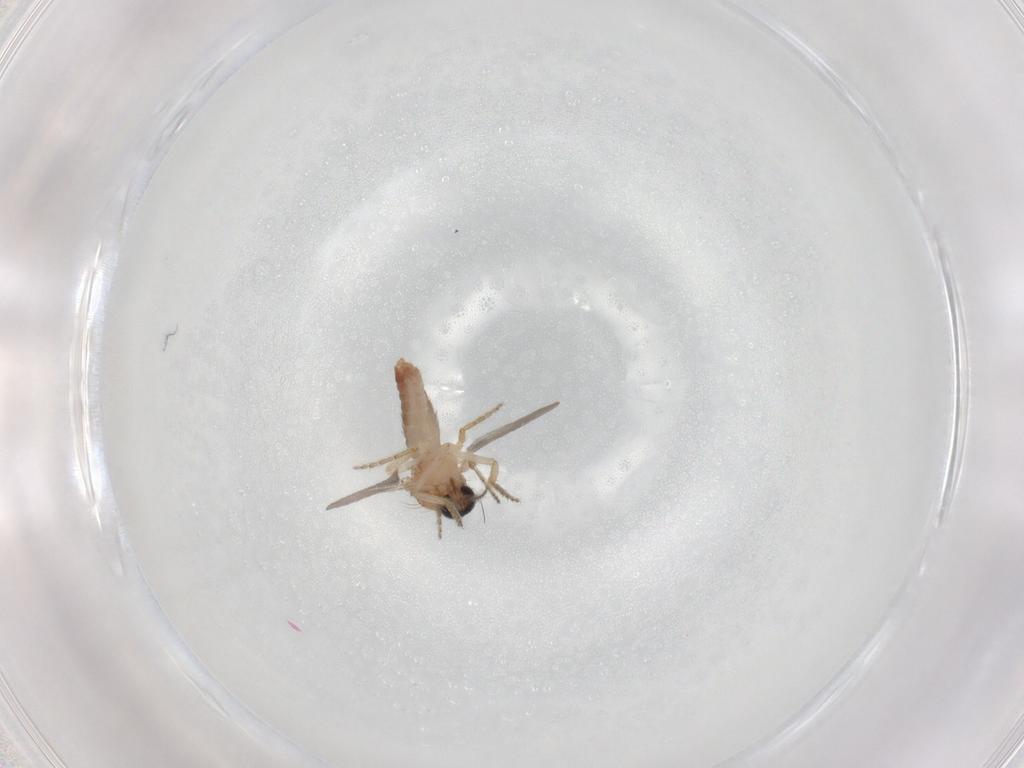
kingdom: Animalia
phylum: Arthropoda
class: Insecta
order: Diptera
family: Ceratopogonidae
